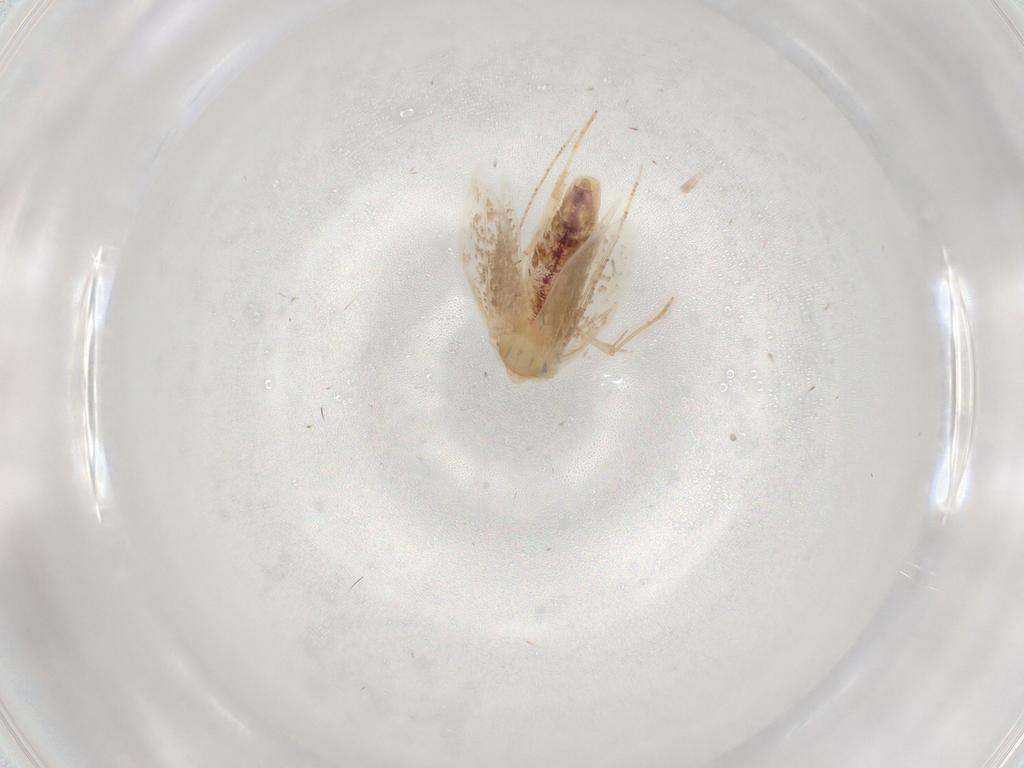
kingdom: Animalia
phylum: Arthropoda
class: Insecta
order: Lepidoptera
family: Bucculatricidae
